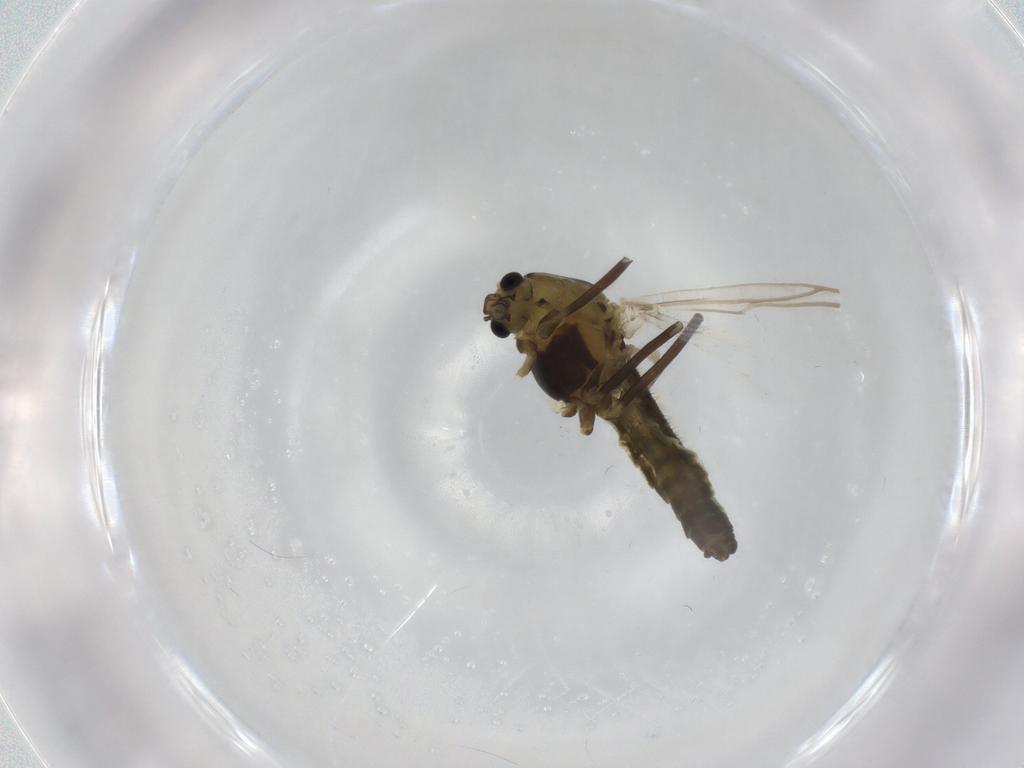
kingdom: Animalia
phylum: Arthropoda
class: Insecta
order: Diptera
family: Chironomidae
